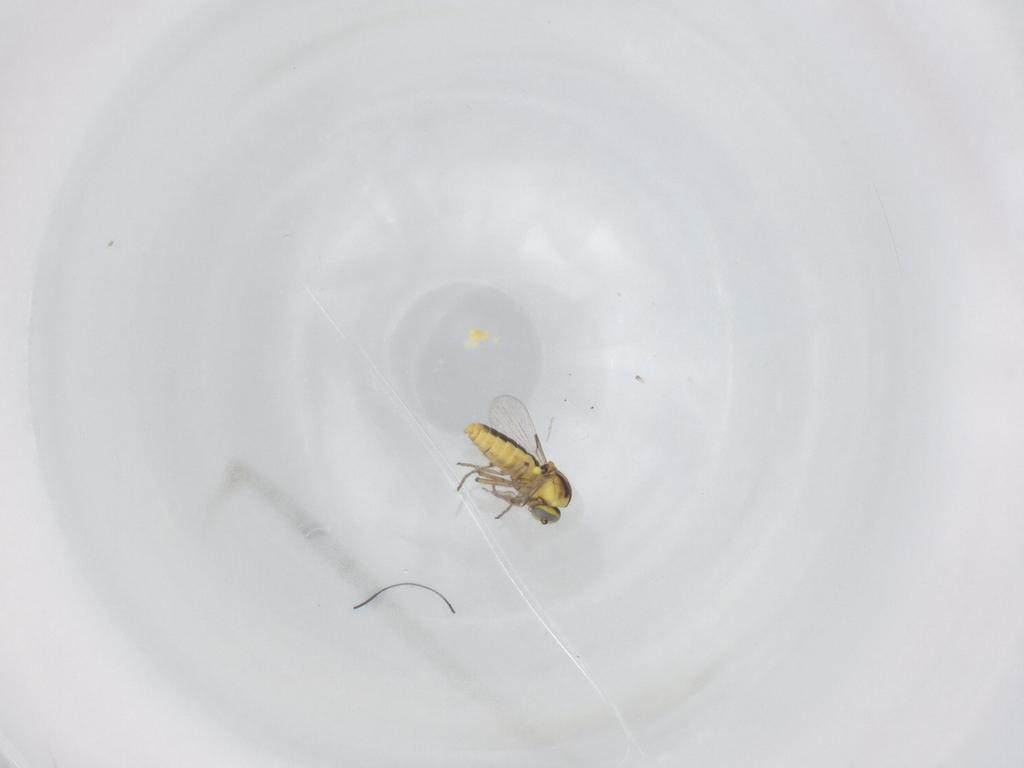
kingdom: Animalia
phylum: Arthropoda
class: Insecta
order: Diptera
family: Ceratopogonidae
